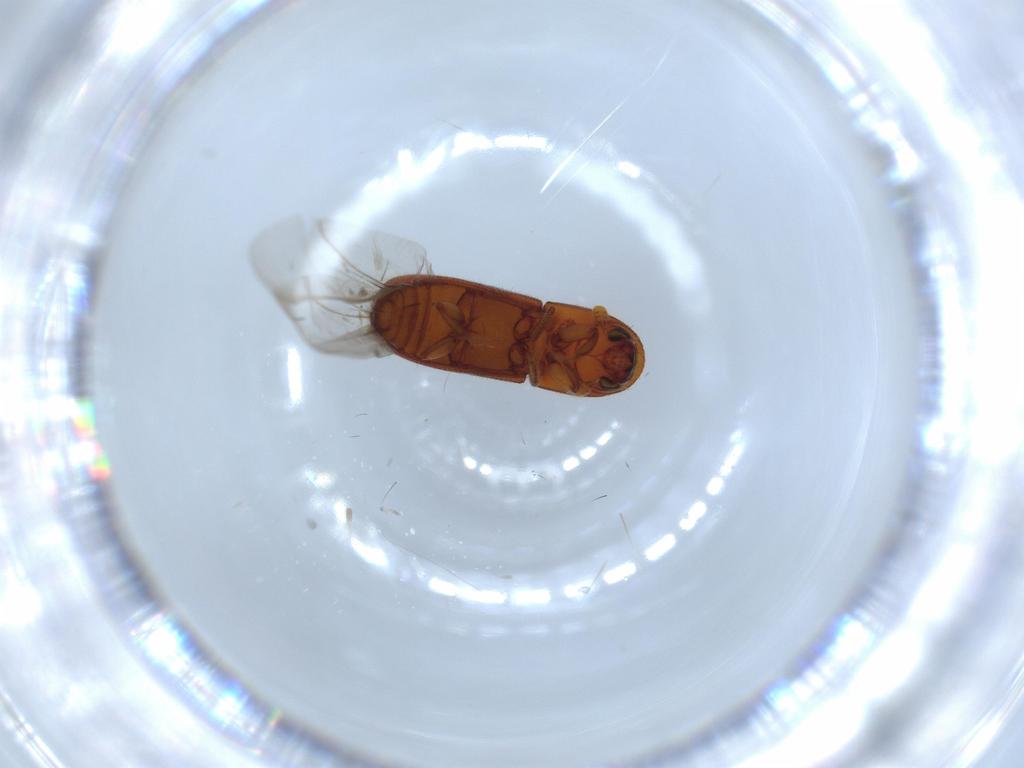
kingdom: Animalia
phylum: Arthropoda
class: Insecta
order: Coleoptera
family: Curculionidae
